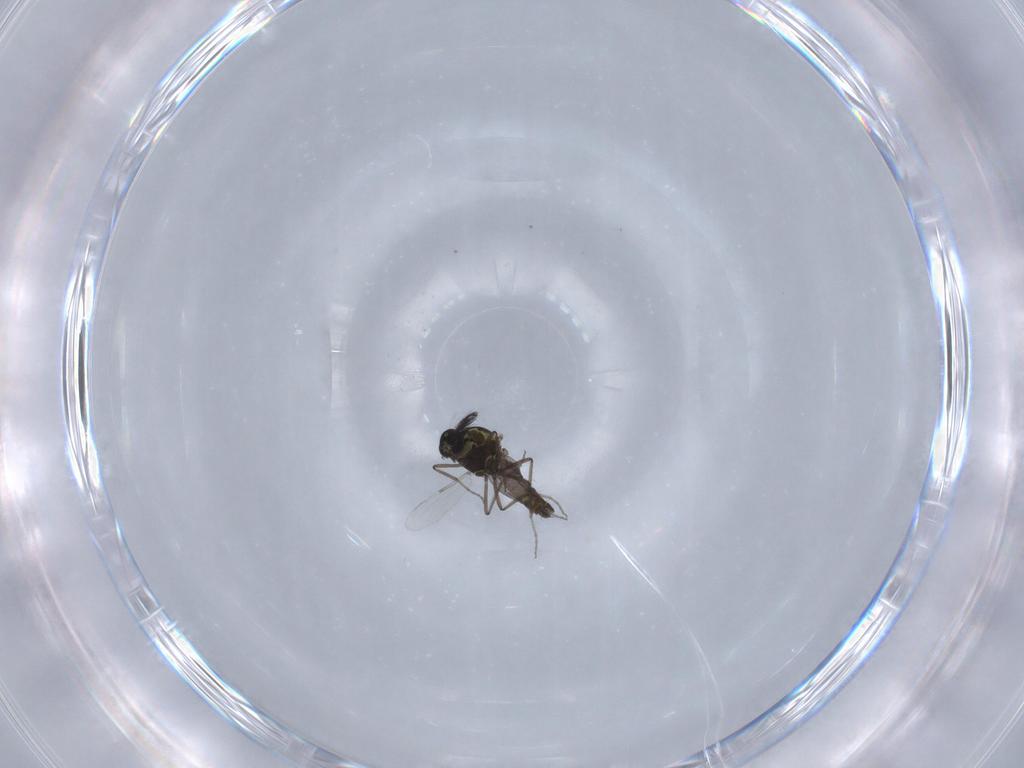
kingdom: Animalia
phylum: Arthropoda
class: Insecta
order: Diptera
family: Ceratopogonidae
